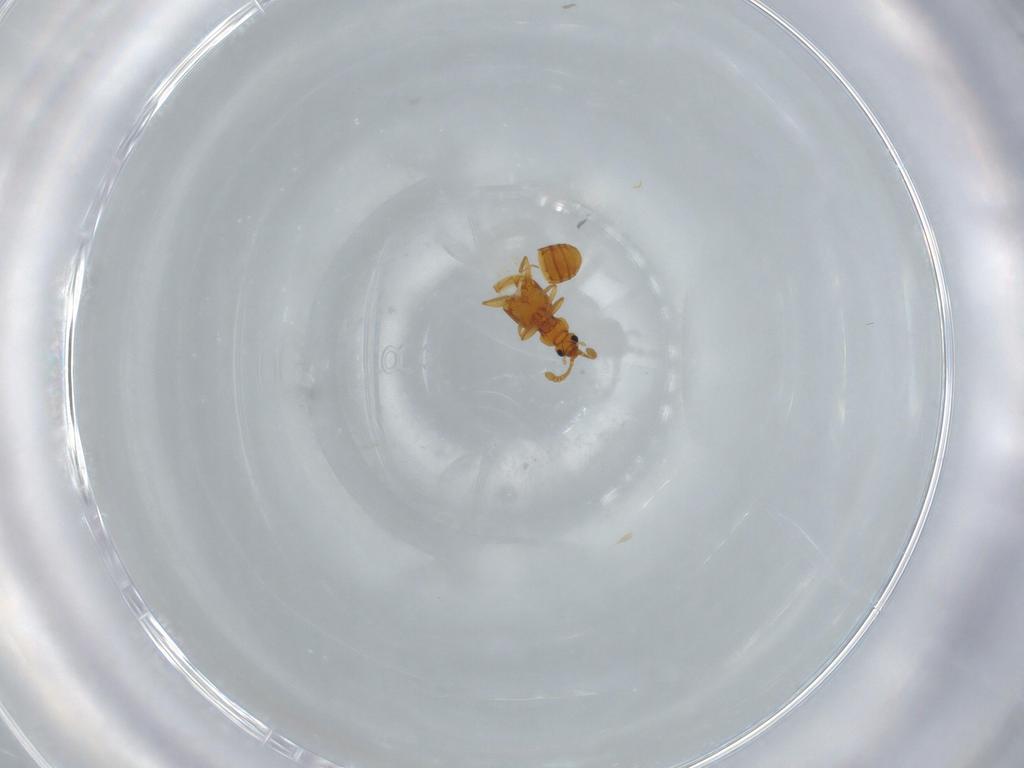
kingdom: Animalia
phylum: Arthropoda
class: Insecta
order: Coleoptera
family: Staphylinidae
